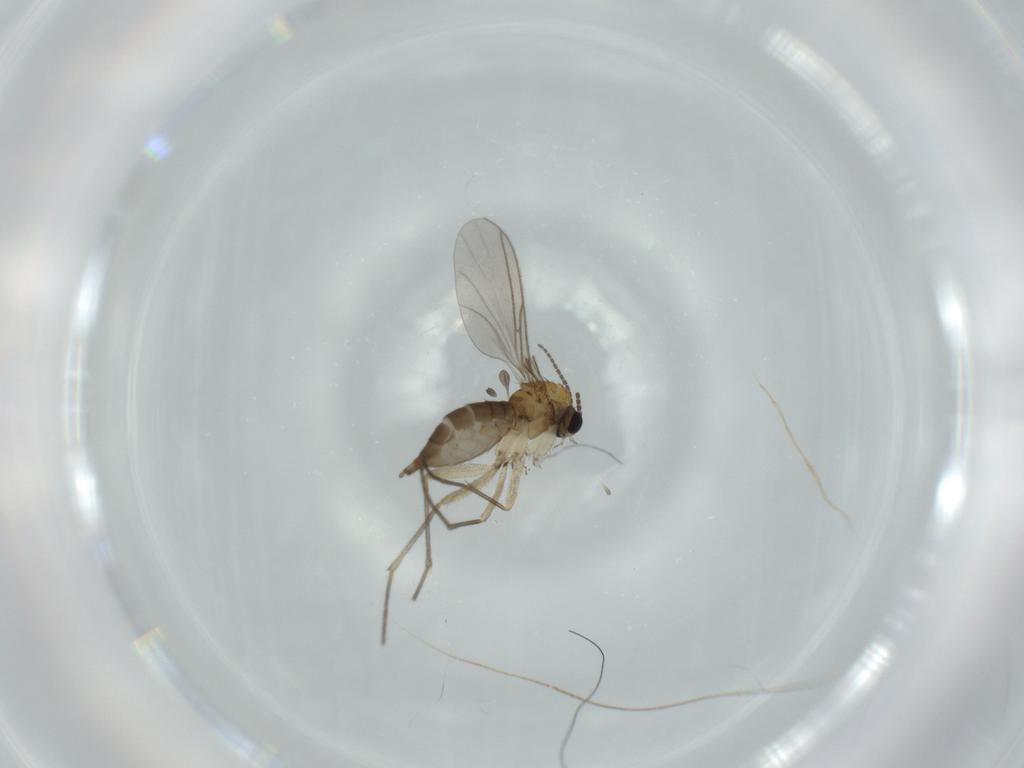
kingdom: Animalia
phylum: Arthropoda
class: Insecta
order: Diptera
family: Sciaridae
